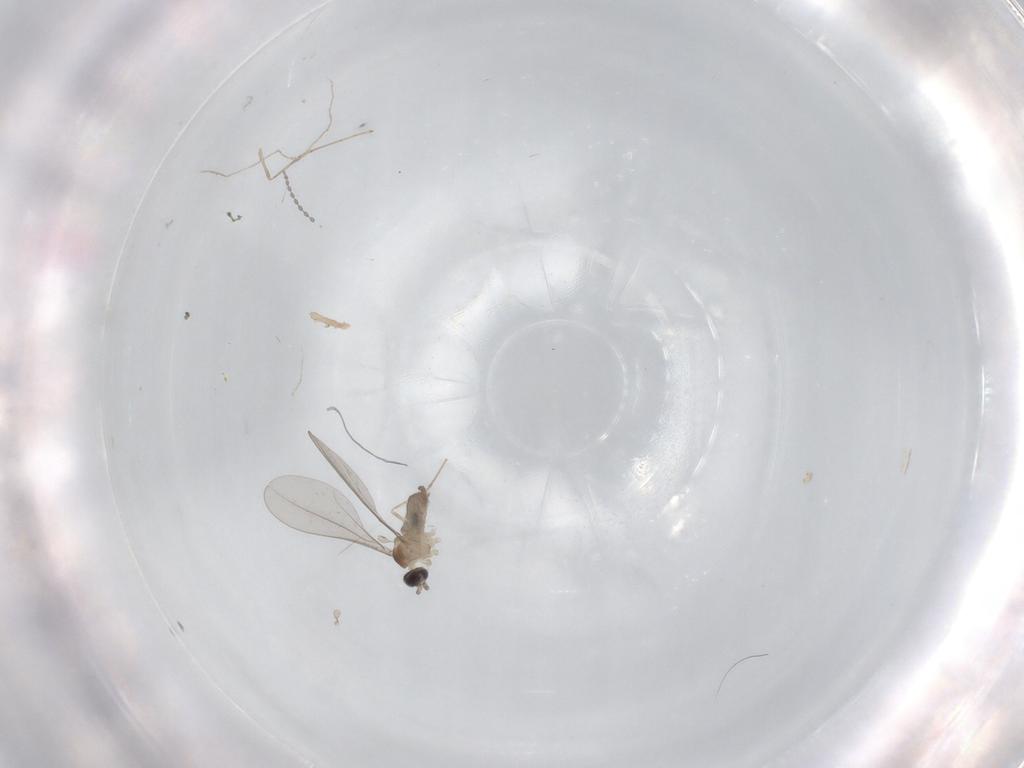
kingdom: Animalia
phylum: Arthropoda
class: Insecta
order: Diptera
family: Cecidomyiidae
